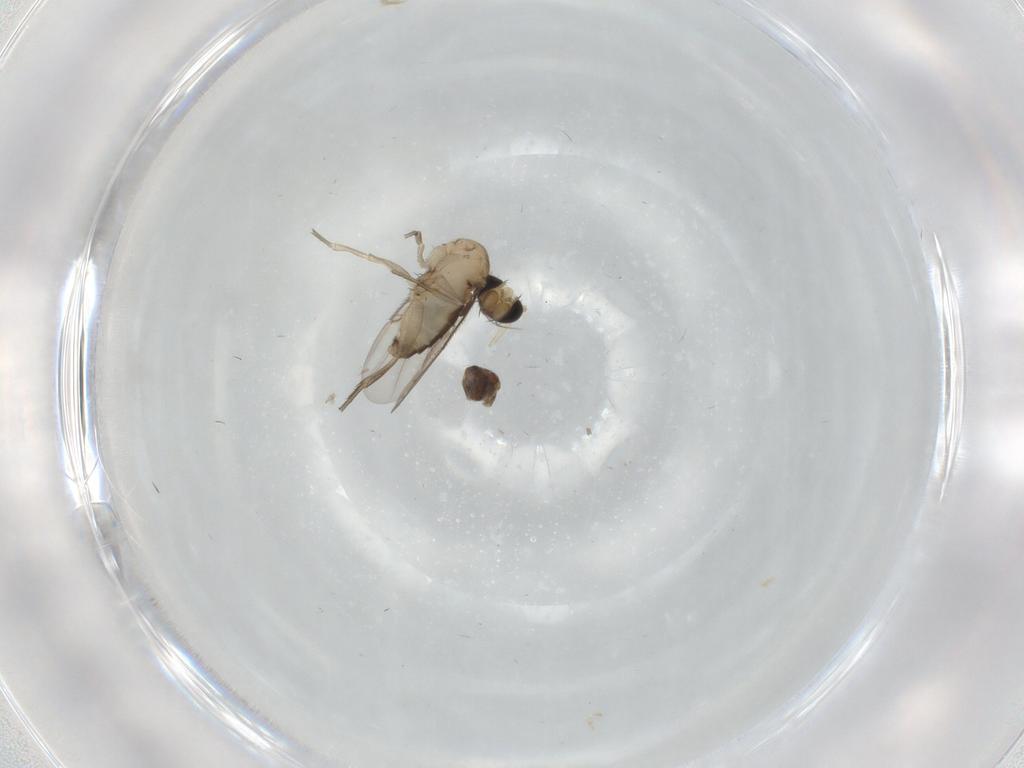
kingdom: Animalia
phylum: Arthropoda
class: Insecta
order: Diptera
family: Phoridae
